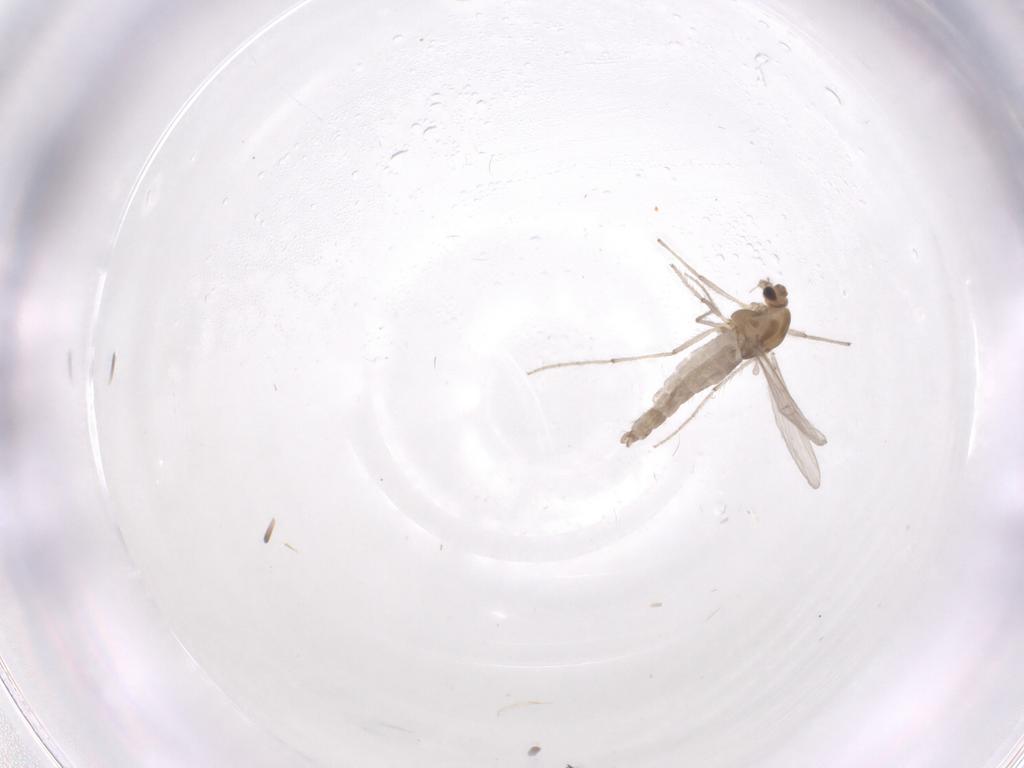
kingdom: Animalia
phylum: Arthropoda
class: Insecta
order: Diptera
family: Chironomidae
